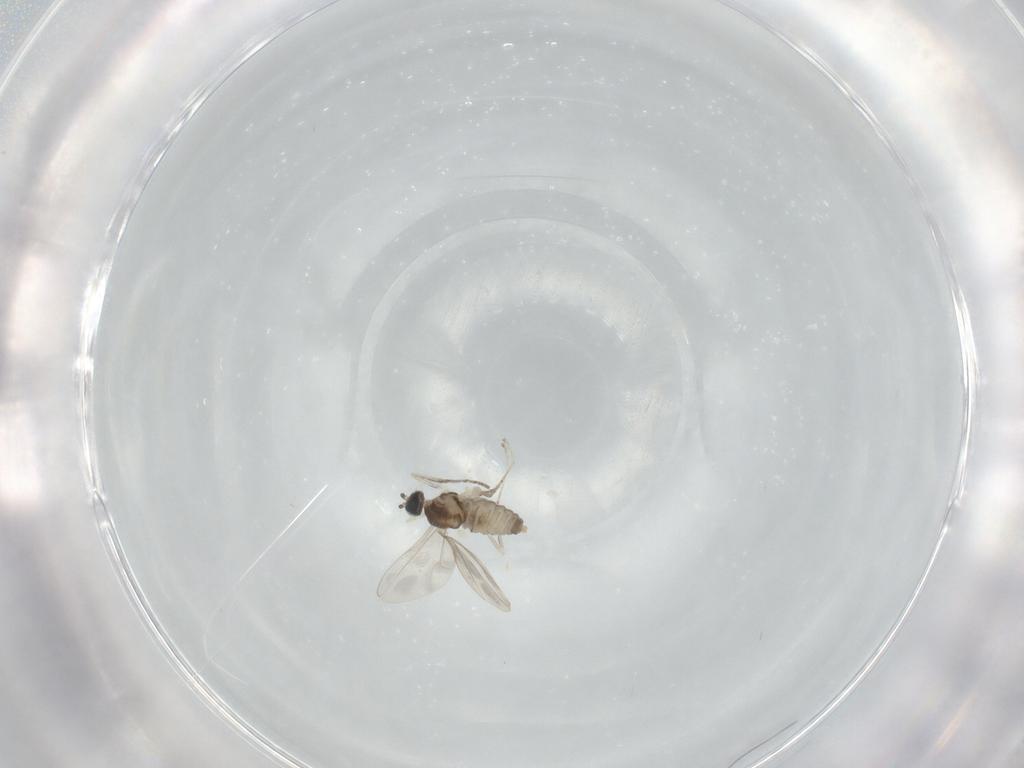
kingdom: Animalia
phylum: Arthropoda
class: Insecta
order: Diptera
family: Cecidomyiidae
